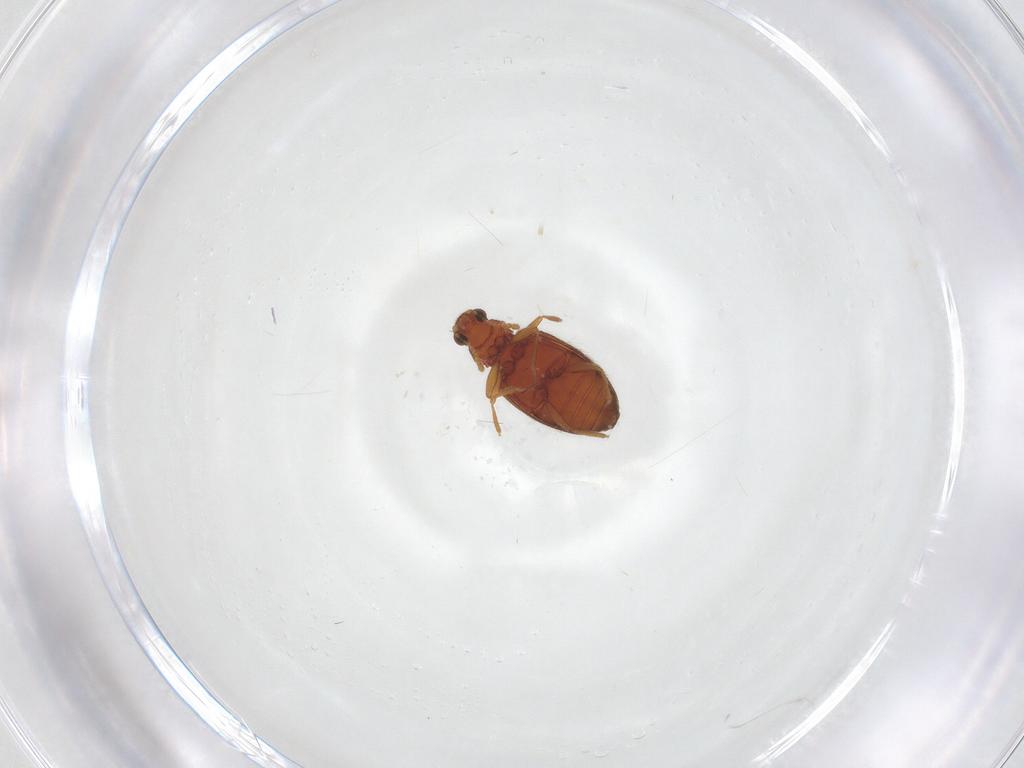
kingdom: Animalia
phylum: Arthropoda
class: Insecta
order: Coleoptera
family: Latridiidae
